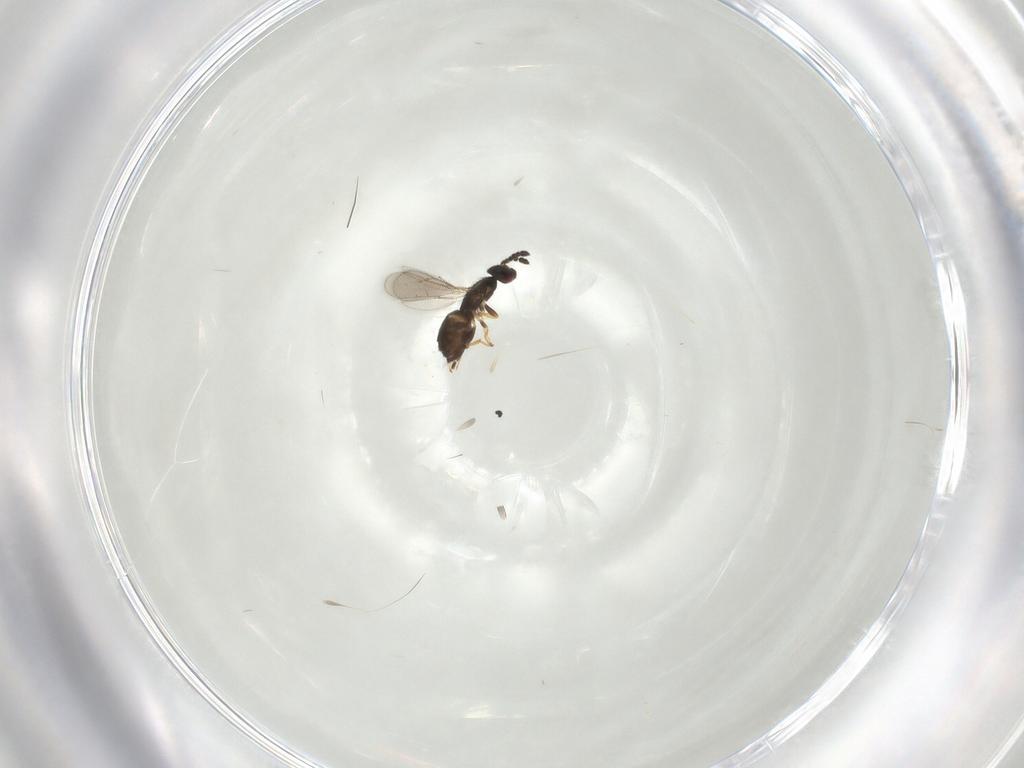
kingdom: Animalia
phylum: Arthropoda
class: Insecta
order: Hymenoptera
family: Eulophidae
